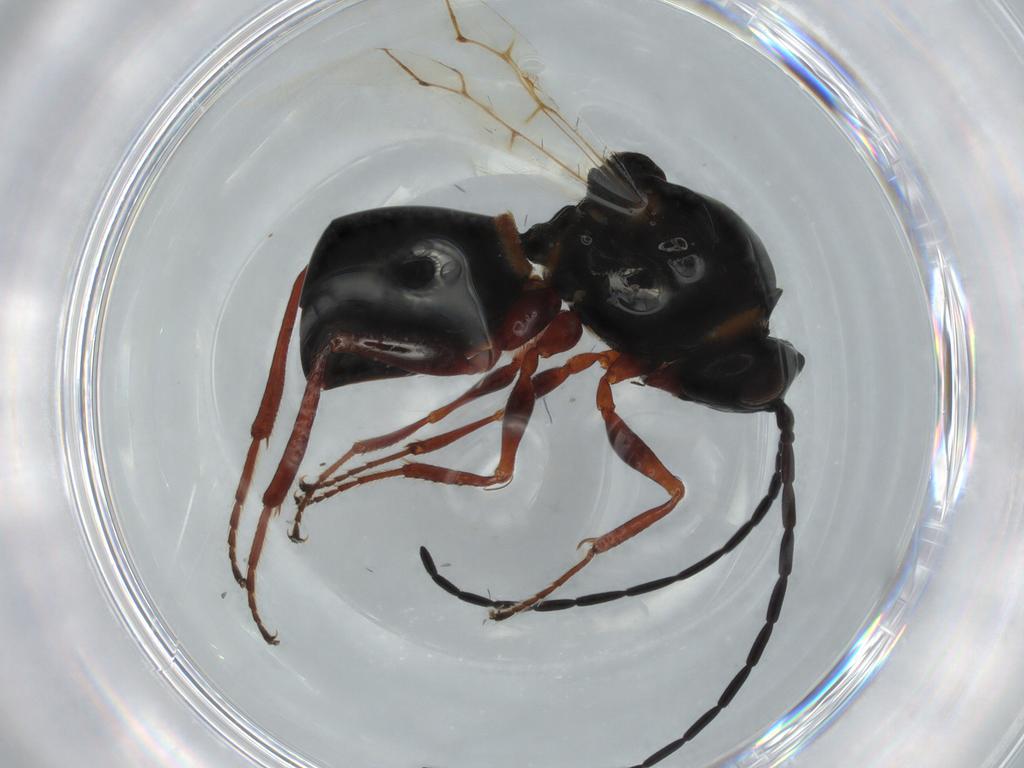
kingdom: Animalia
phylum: Arthropoda
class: Insecta
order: Hymenoptera
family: Figitidae
